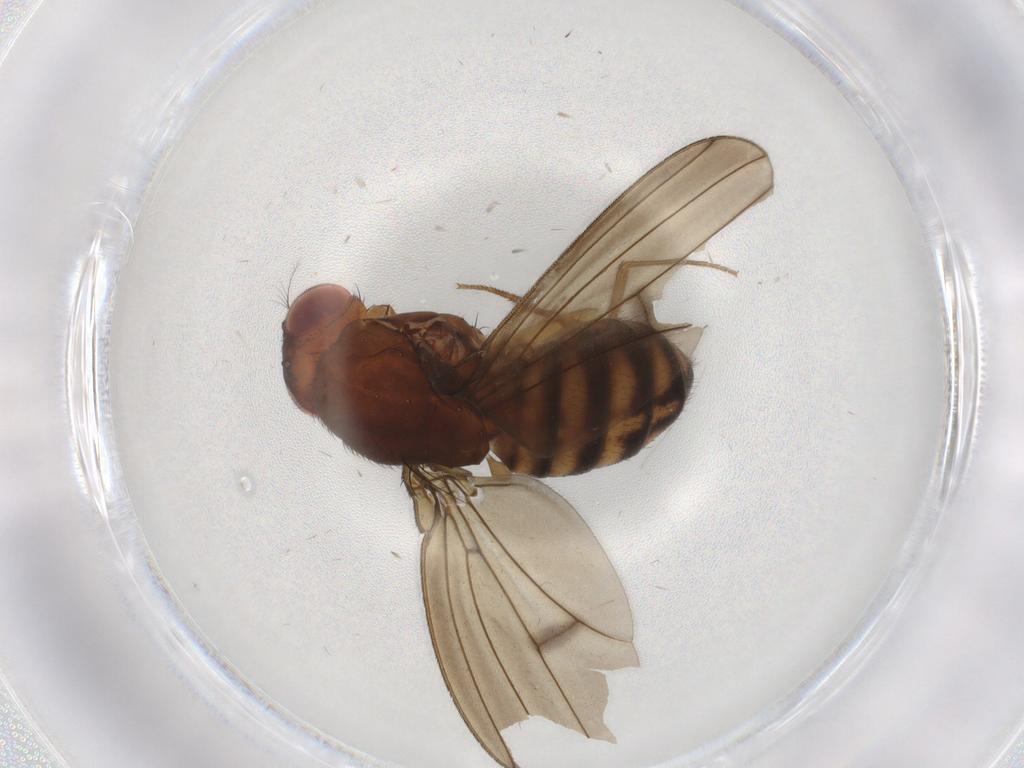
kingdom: Animalia
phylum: Arthropoda
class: Insecta
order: Diptera
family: Drosophilidae
